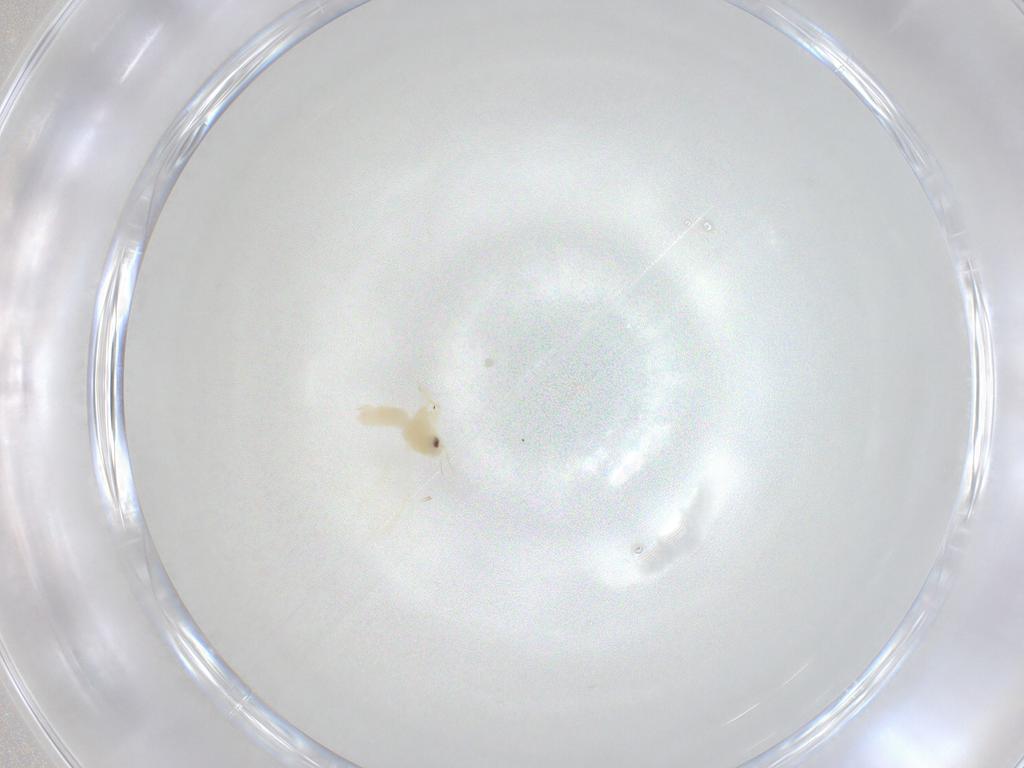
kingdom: Animalia
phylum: Arthropoda
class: Insecta
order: Hemiptera
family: Aleyrodidae
